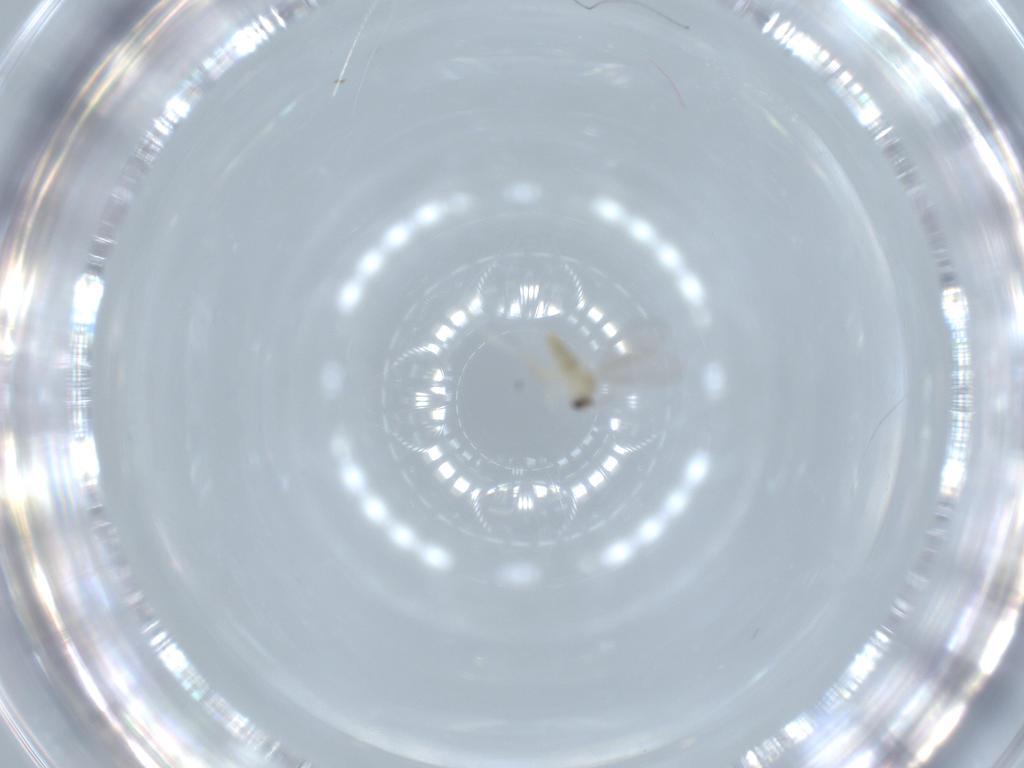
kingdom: Animalia
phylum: Arthropoda
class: Insecta
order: Diptera
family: Cecidomyiidae
